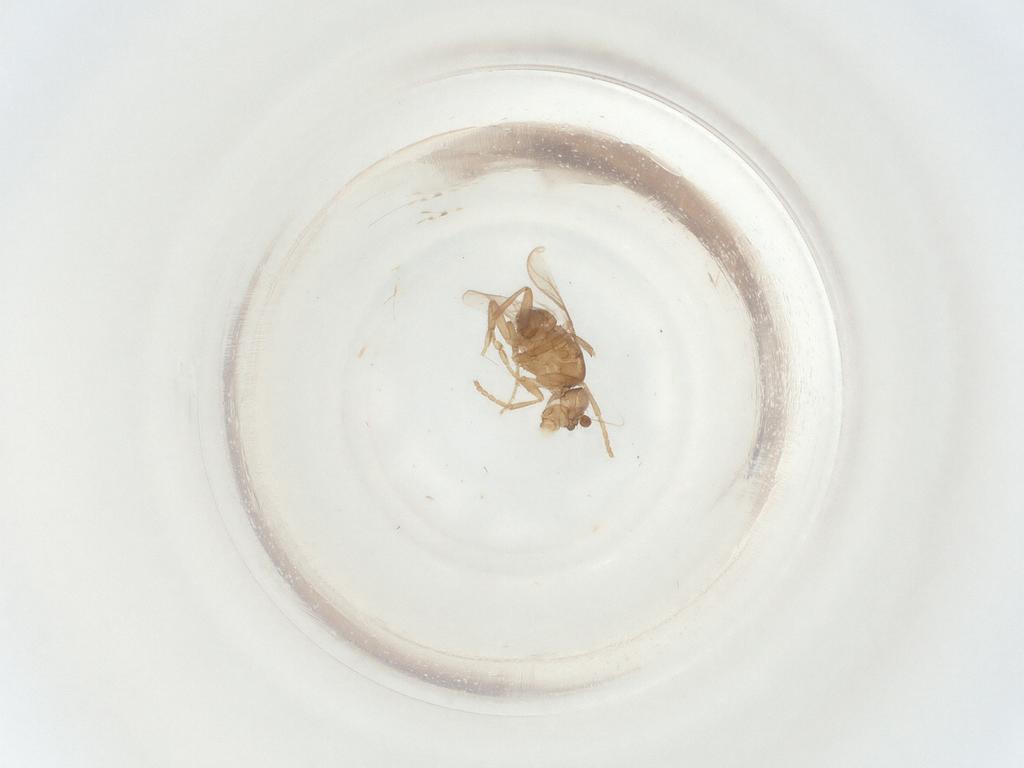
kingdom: Animalia
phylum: Arthropoda
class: Insecta
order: Diptera
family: Sphaeroceridae
